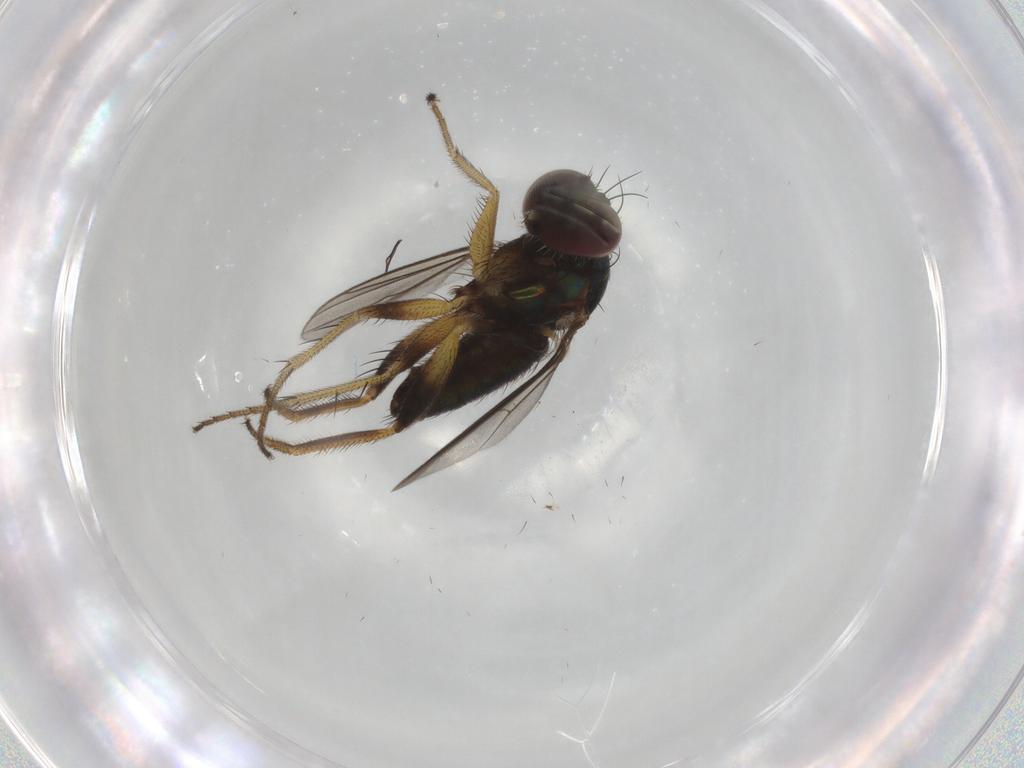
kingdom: Animalia
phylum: Arthropoda
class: Insecta
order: Diptera
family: Dolichopodidae
